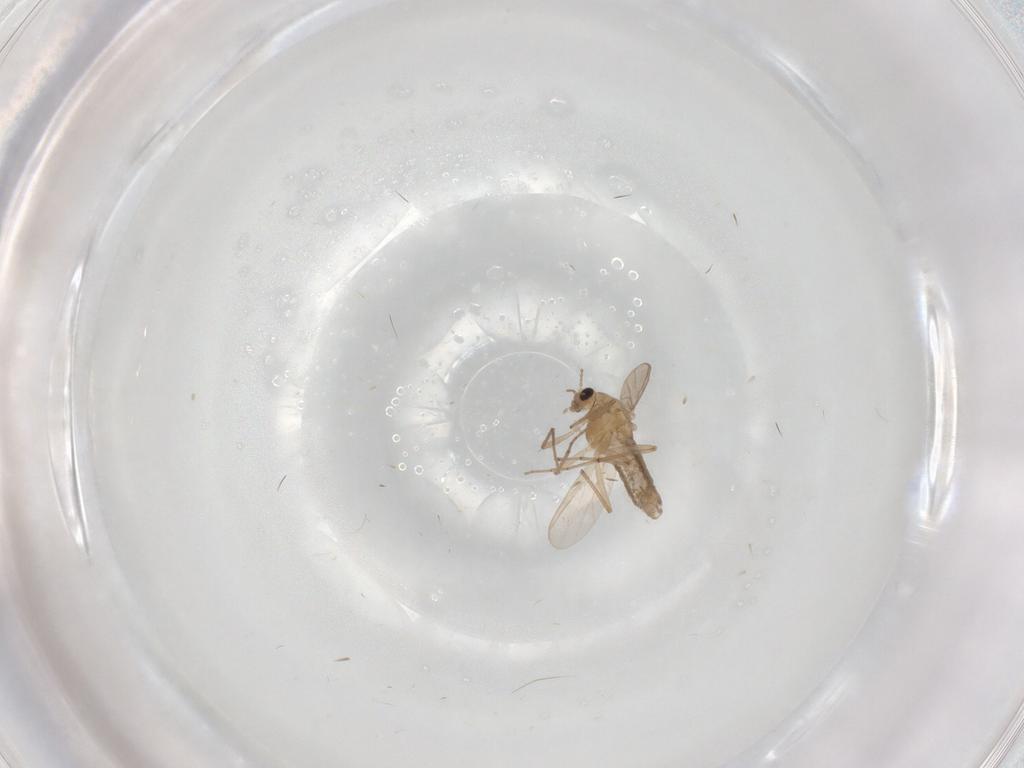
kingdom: Animalia
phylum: Arthropoda
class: Insecta
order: Diptera
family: Chironomidae
